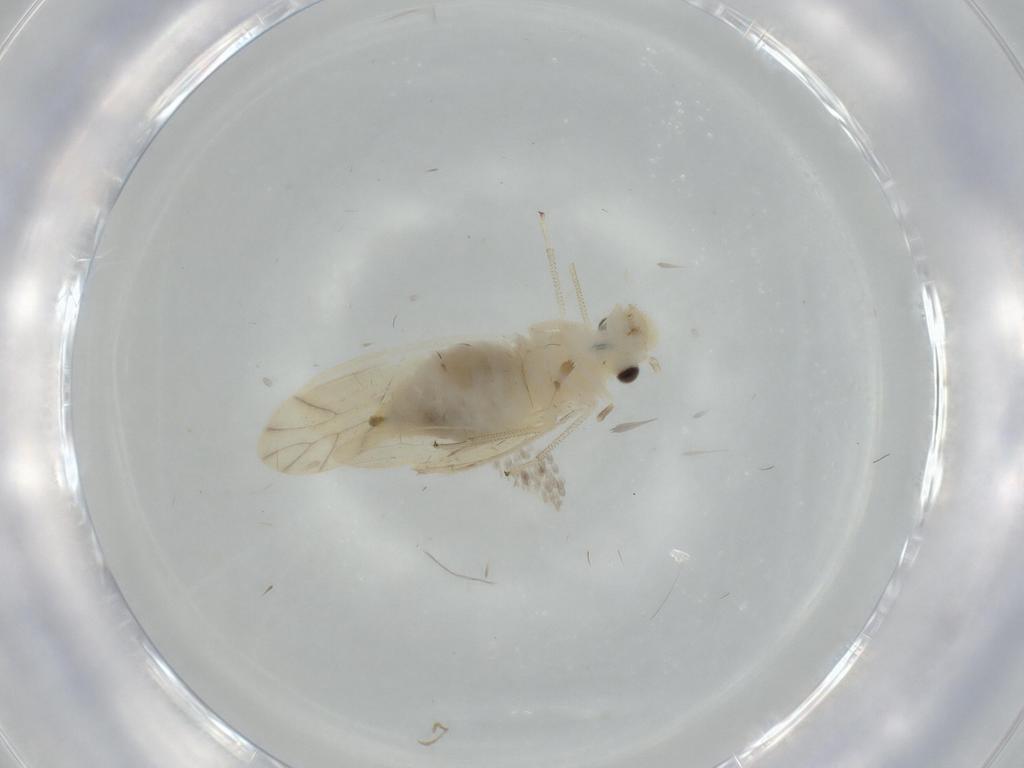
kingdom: Animalia
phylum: Arthropoda
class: Insecta
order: Psocodea
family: Caeciliusidae
